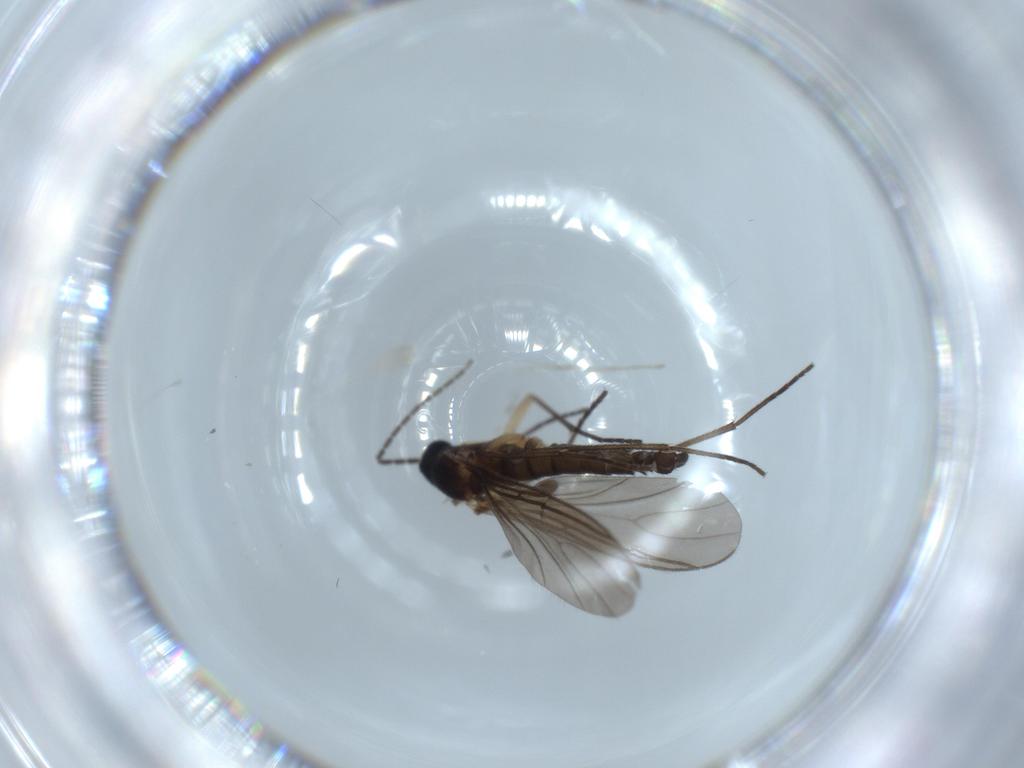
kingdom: Animalia
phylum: Arthropoda
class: Insecta
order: Diptera
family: Sciaridae
